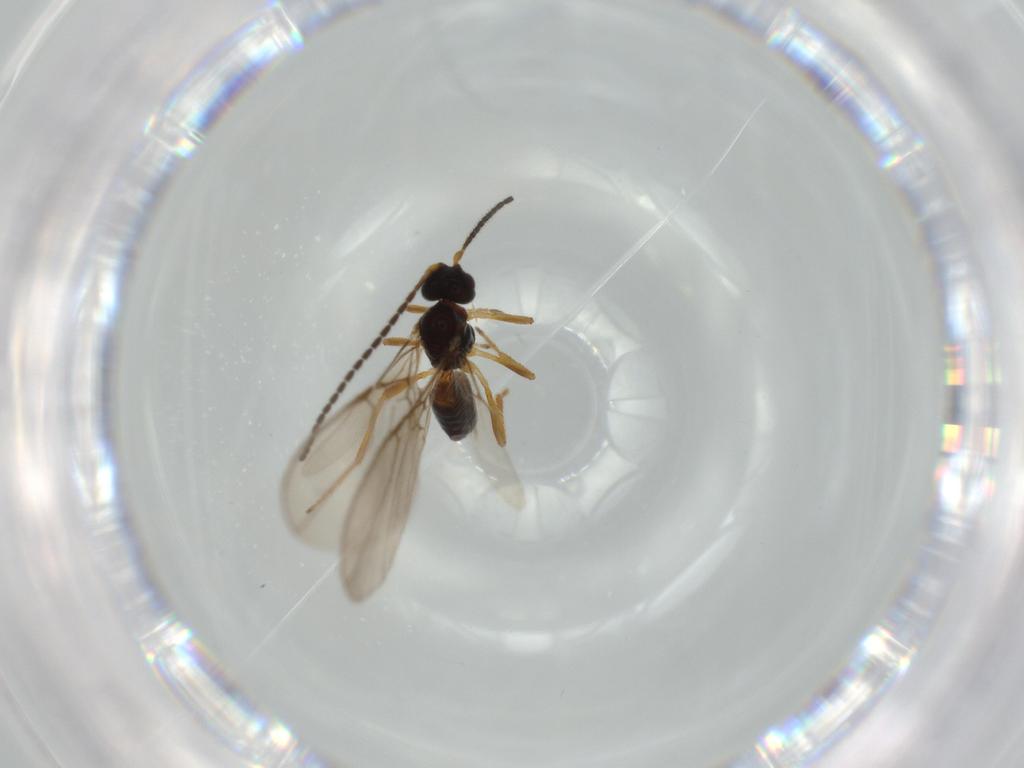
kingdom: Animalia
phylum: Arthropoda
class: Insecta
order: Hymenoptera
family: Braconidae
